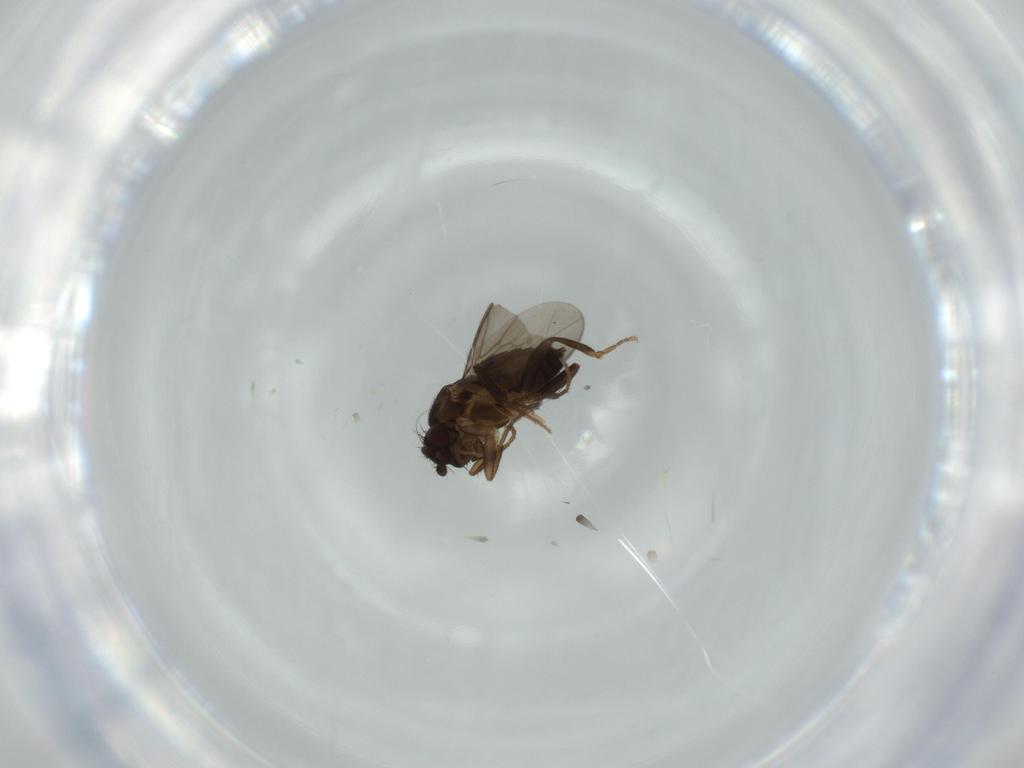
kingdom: Animalia
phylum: Arthropoda
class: Insecta
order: Diptera
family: Sphaeroceridae
